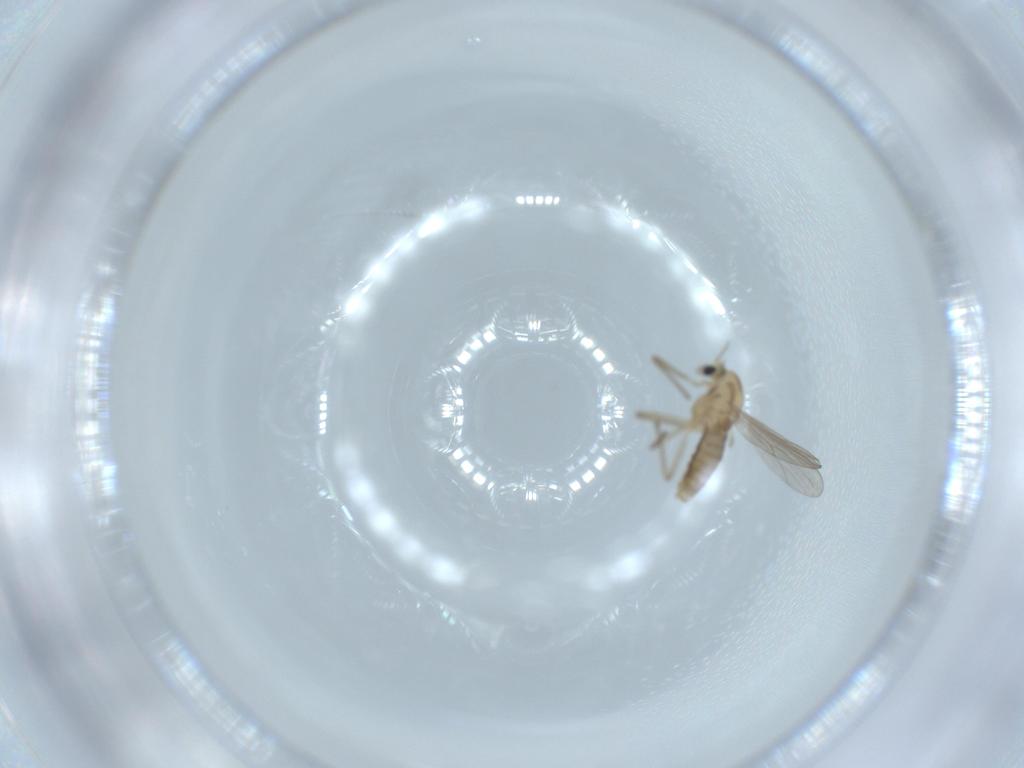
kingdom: Animalia
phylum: Arthropoda
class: Insecta
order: Diptera
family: Chironomidae
